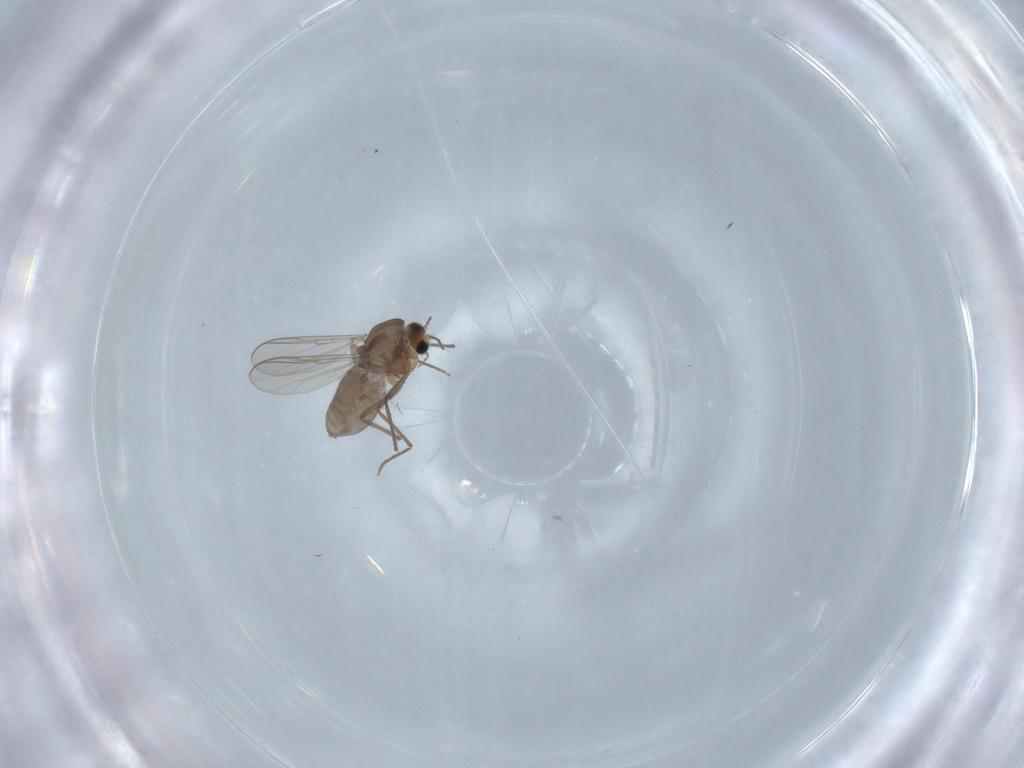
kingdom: Animalia
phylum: Arthropoda
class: Insecta
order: Diptera
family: Chironomidae
